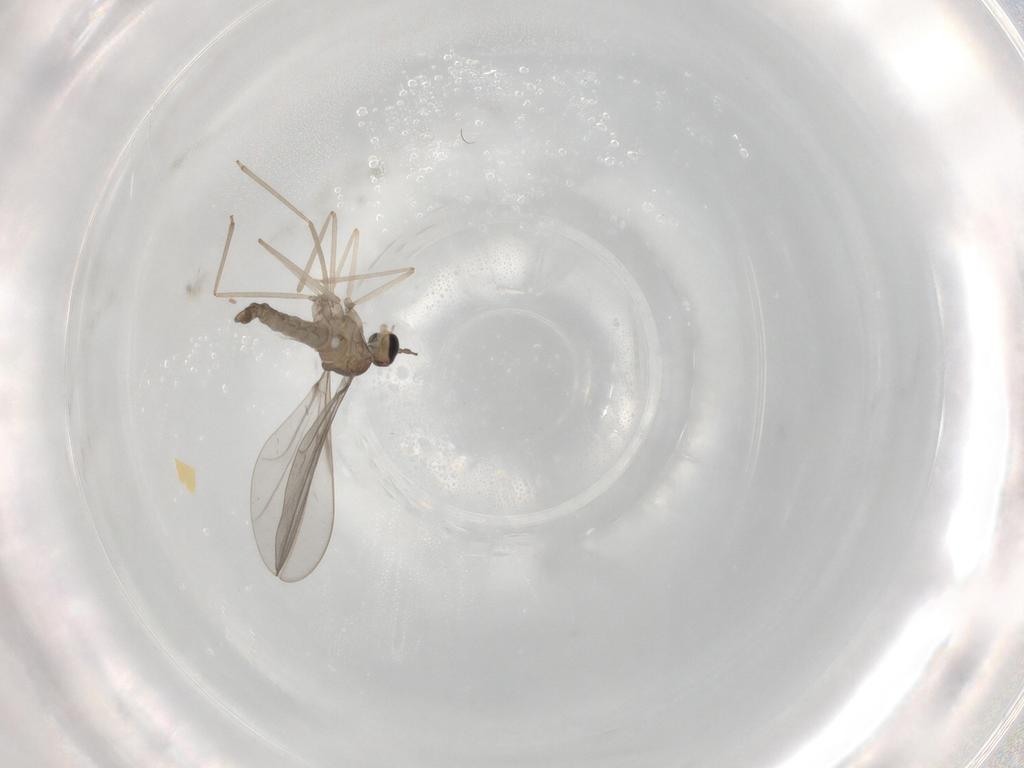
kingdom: Animalia
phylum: Arthropoda
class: Insecta
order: Diptera
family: Cecidomyiidae
